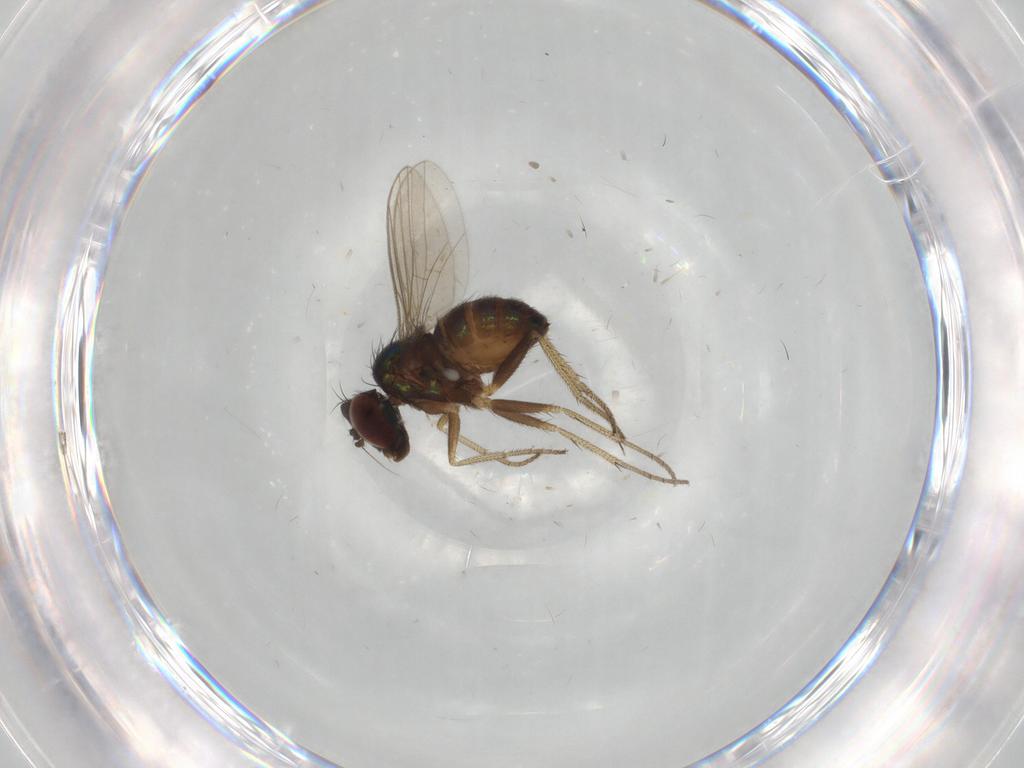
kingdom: Animalia
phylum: Arthropoda
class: Insecta
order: Diptera
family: Dolichopodidae
